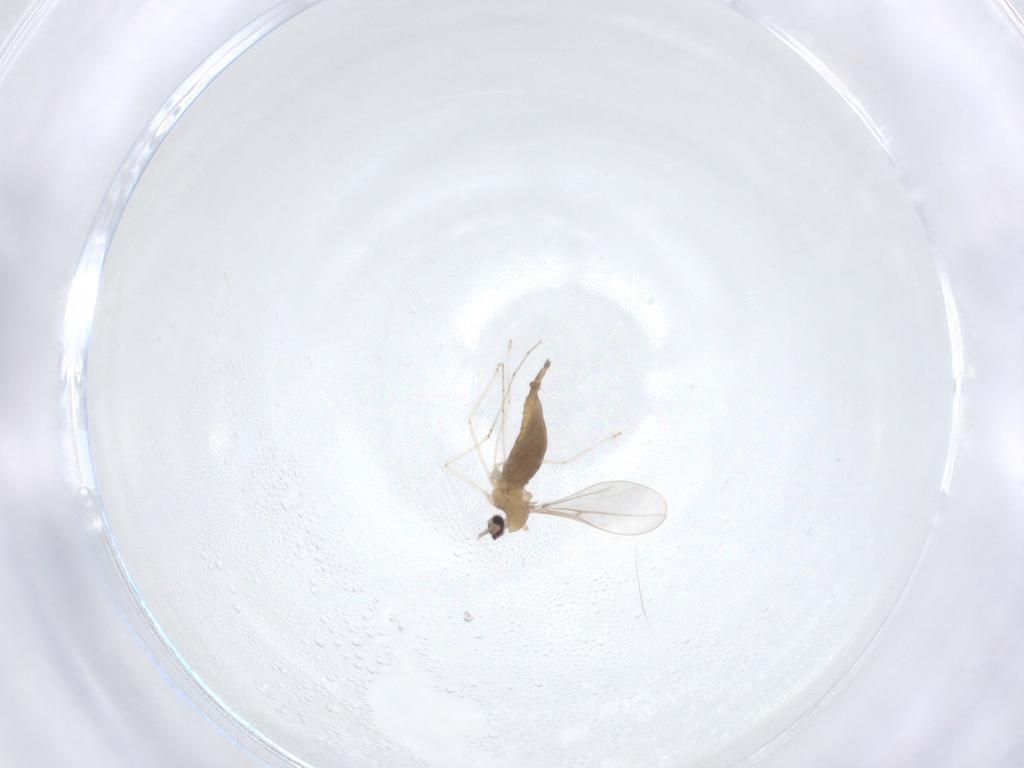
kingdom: Animalia
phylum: Arthropoda
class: Insecta
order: Diptera
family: Cecidomyiidae
